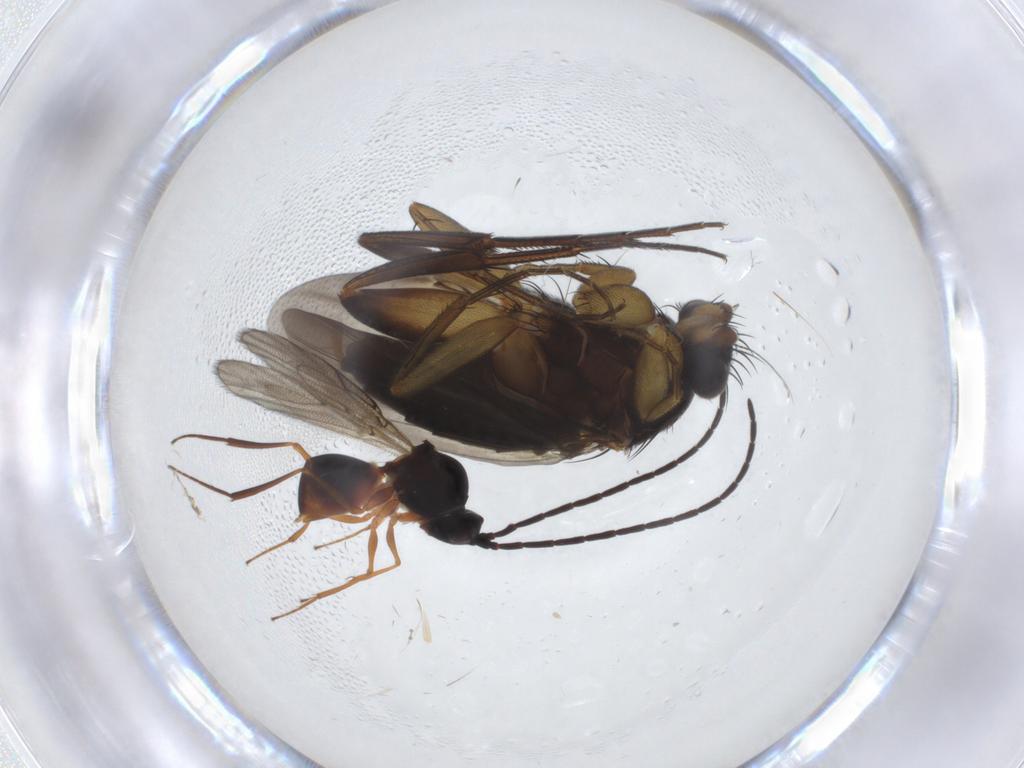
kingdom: Animalia
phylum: Arthropoda
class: Insecta
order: Diptera
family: Phoridae
